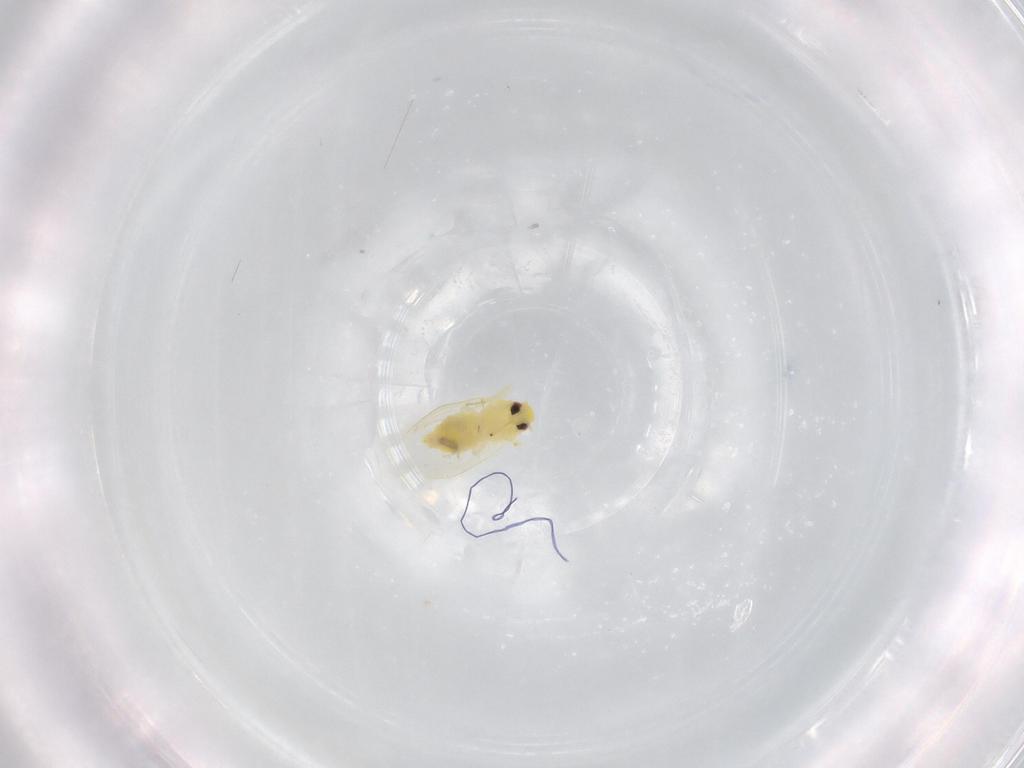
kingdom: Animalia
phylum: Arthropoda
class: Insecta
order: Hemiptera
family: Aleyrodidae
